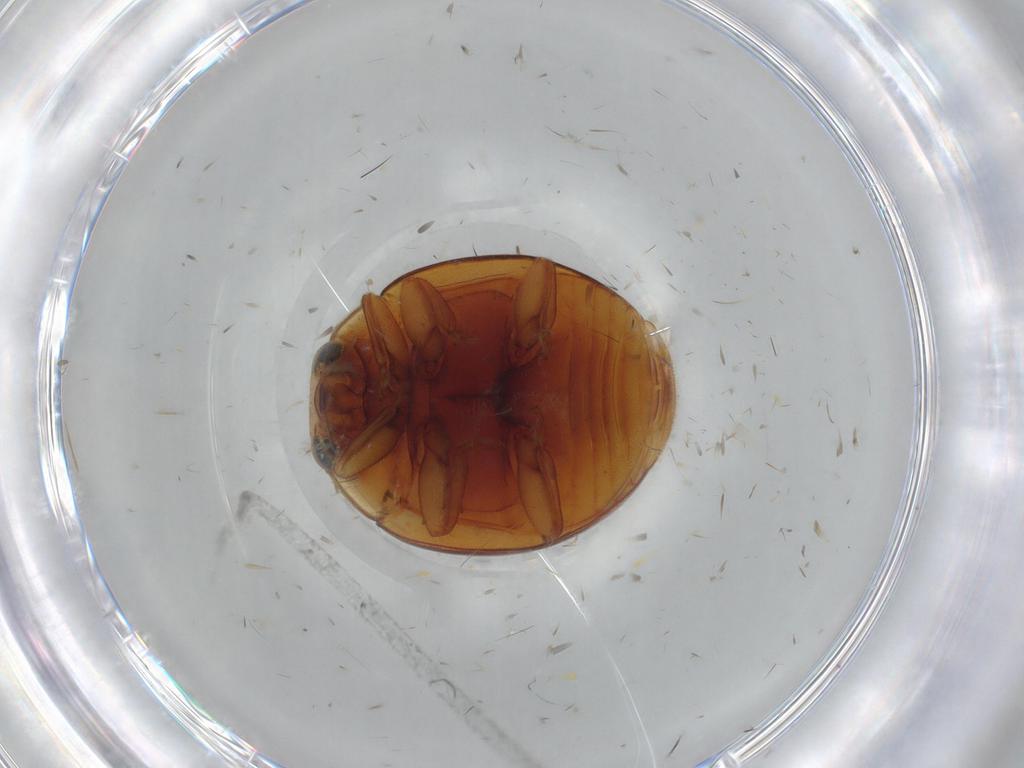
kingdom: Animalia
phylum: Arthropoda
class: Insecta
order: Coleoptera
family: Coccinellidae
